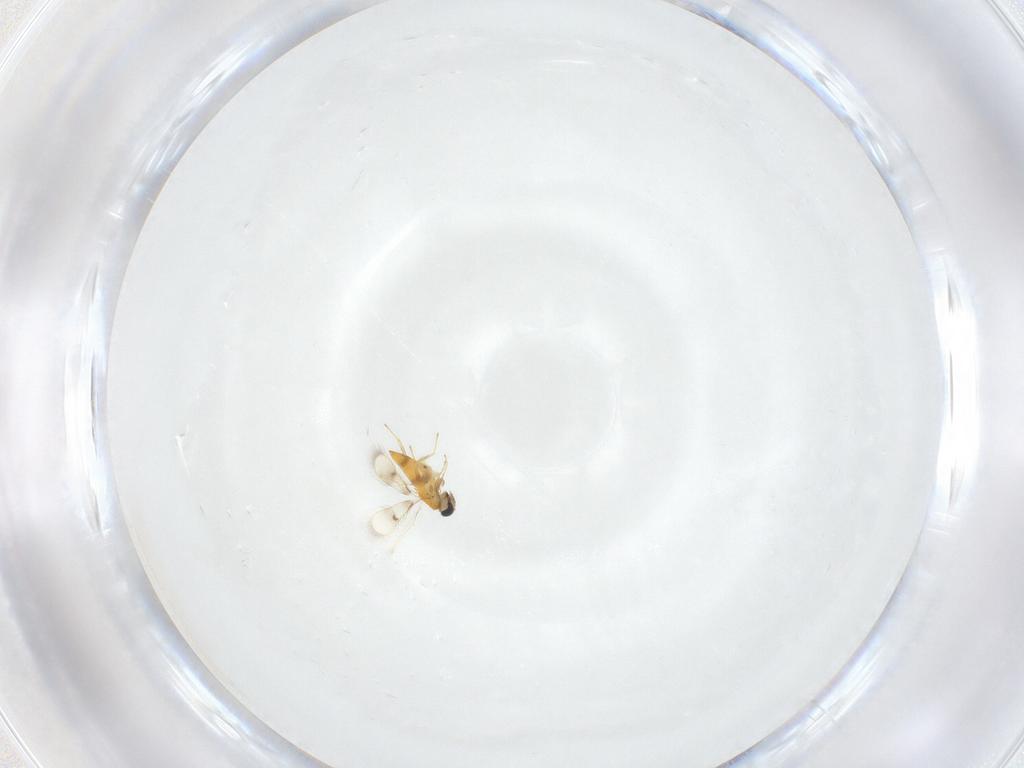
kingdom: Animalia
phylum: Arthropoda
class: Insecta
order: Hymenoptera
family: Trichogrammatidae
